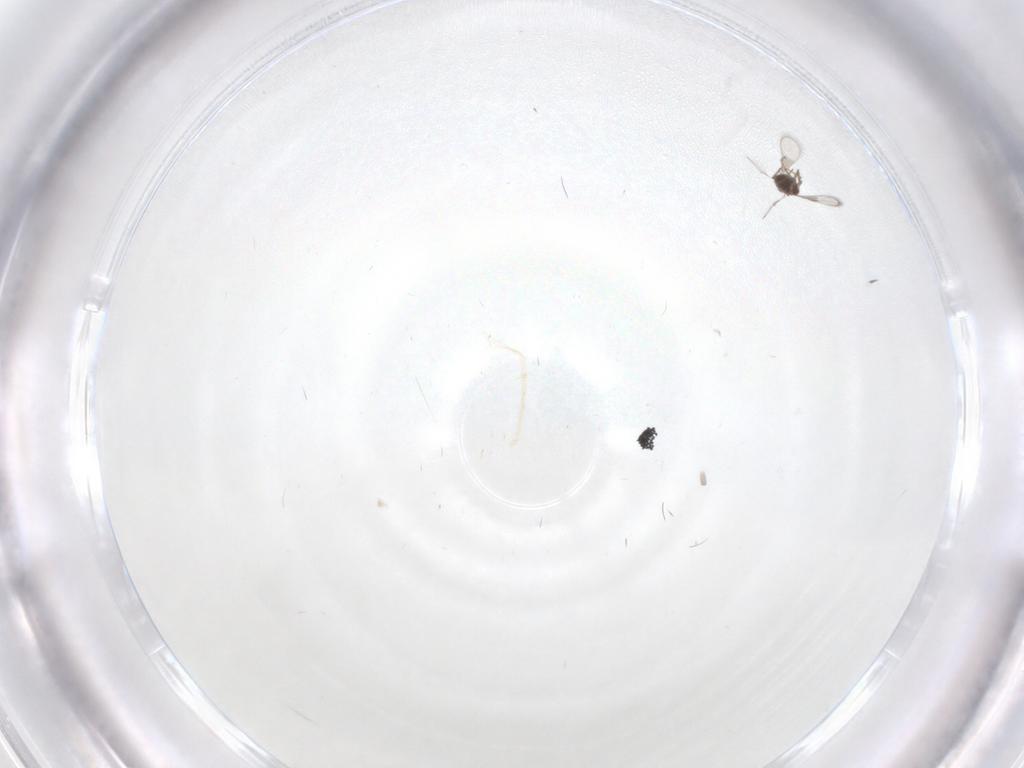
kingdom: Animalia
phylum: Arthropoda
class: Insecta
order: Hymenoptera
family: Trichogrammatidae
